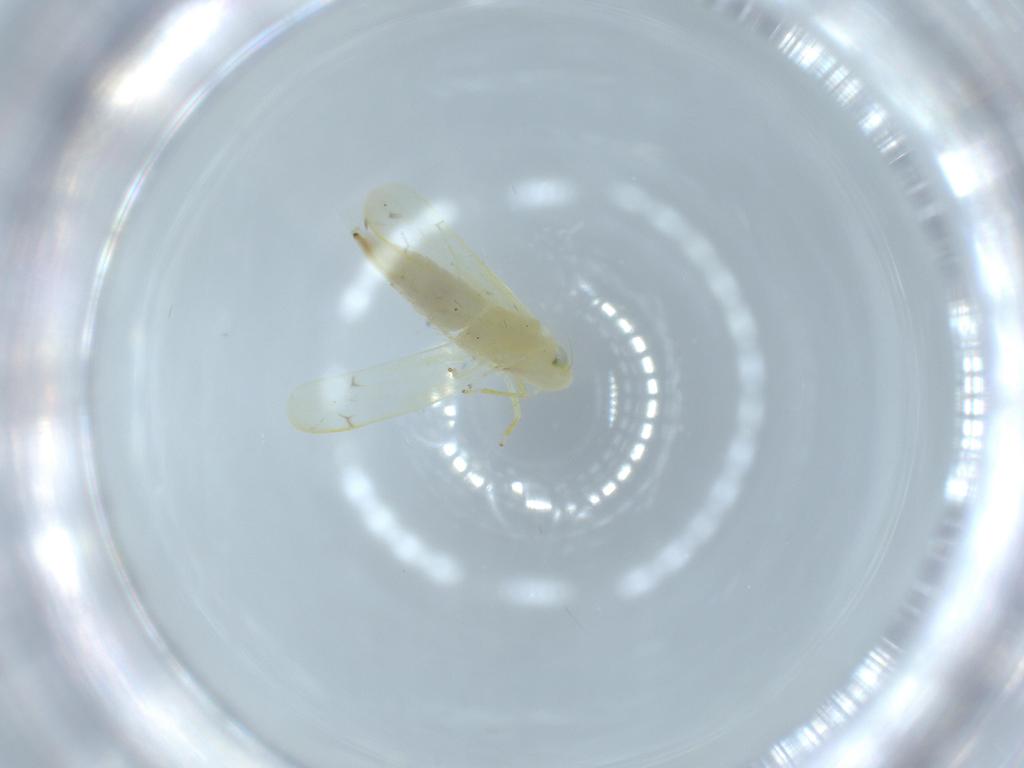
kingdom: Animalia
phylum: Arthropoda
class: Insecta
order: Hemiptera
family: Cicadellidae
